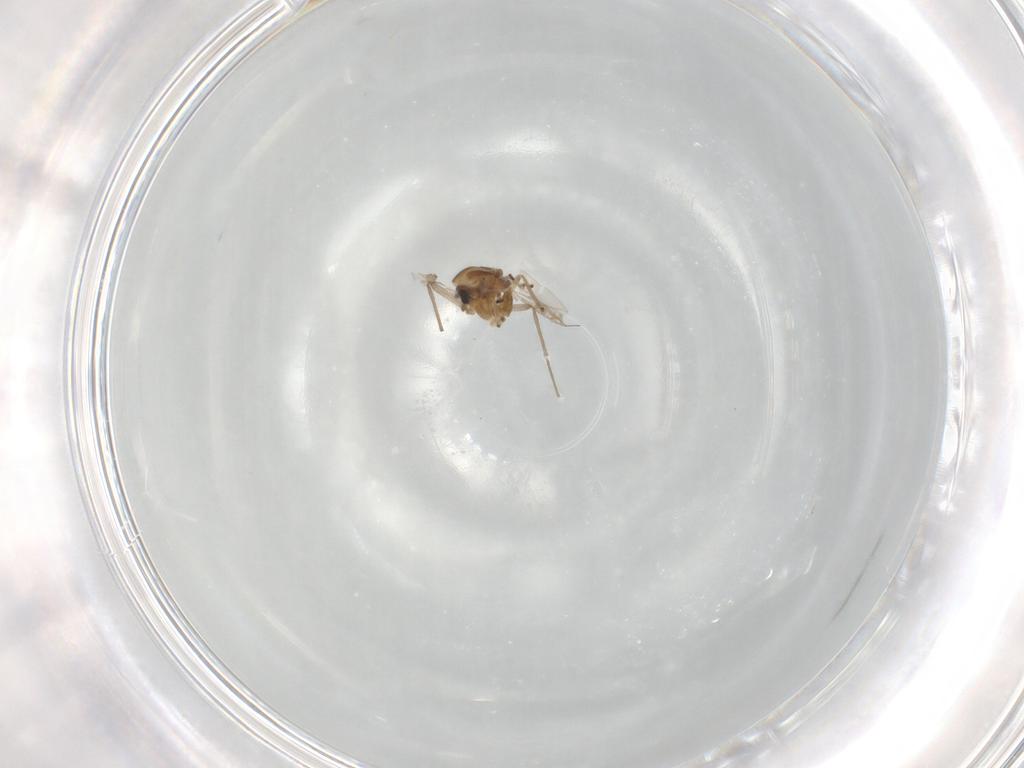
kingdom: Animalia
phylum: Arthropoda
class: Insecta
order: Diptera
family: Chironomidae
